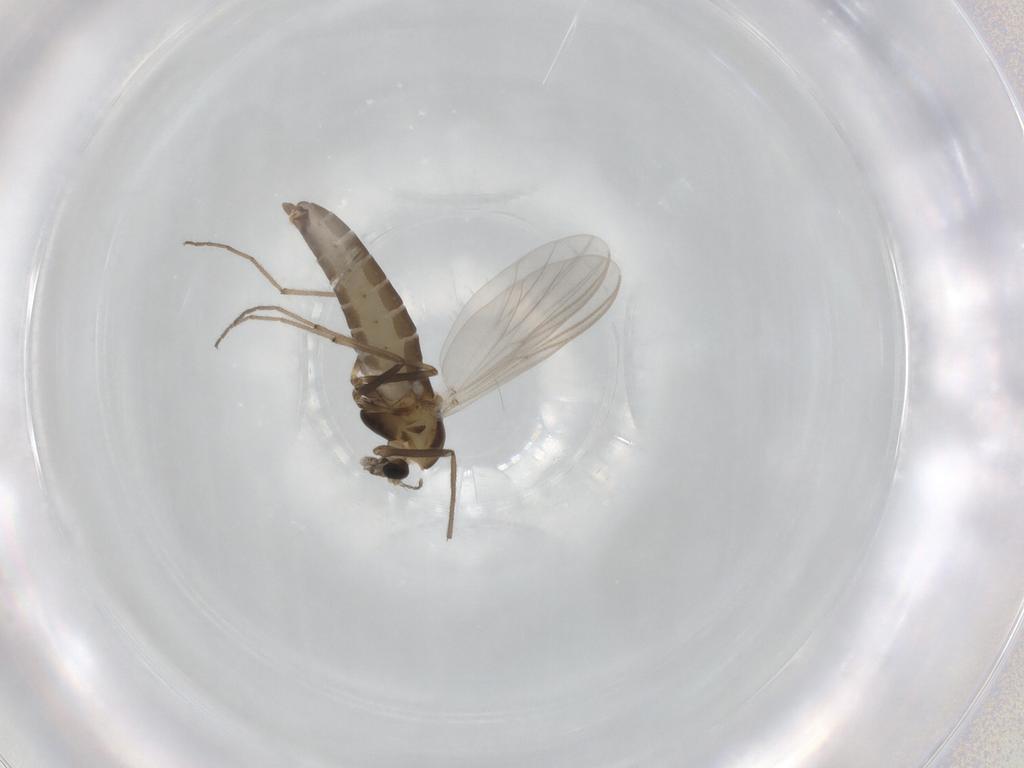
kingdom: Animalia
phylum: Arthropoda
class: Insecta
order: Diptera
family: Chironomidae
